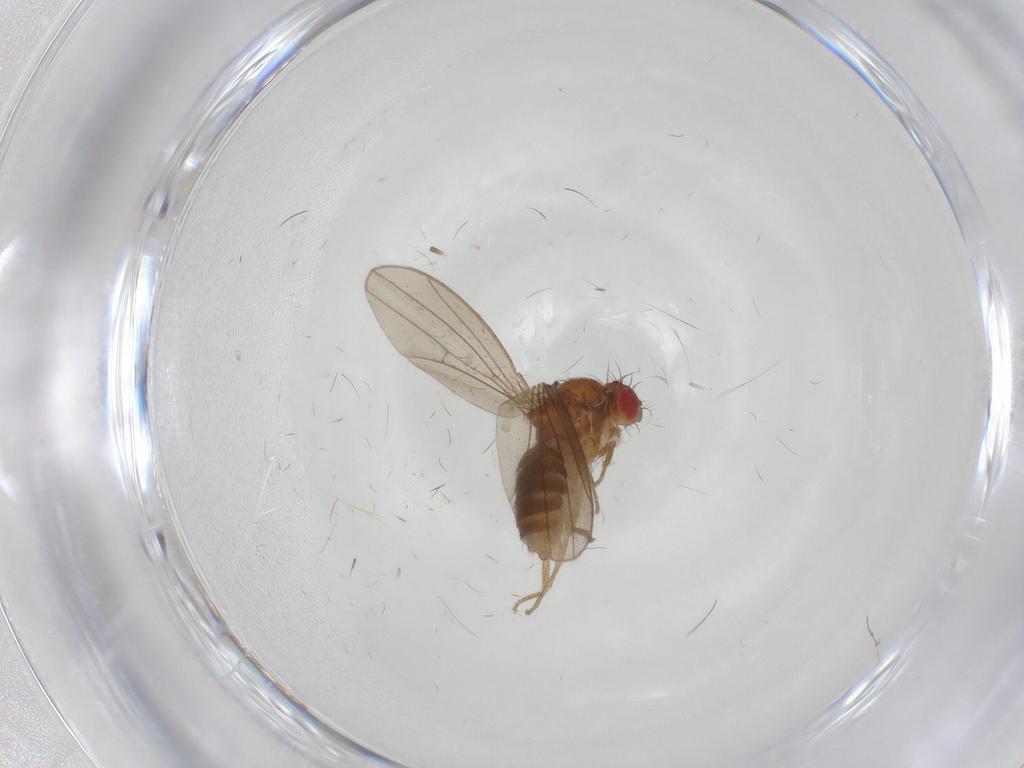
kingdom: Animalia
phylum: Arthropoda
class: Insecta
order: Diptera
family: Drosophilidae
